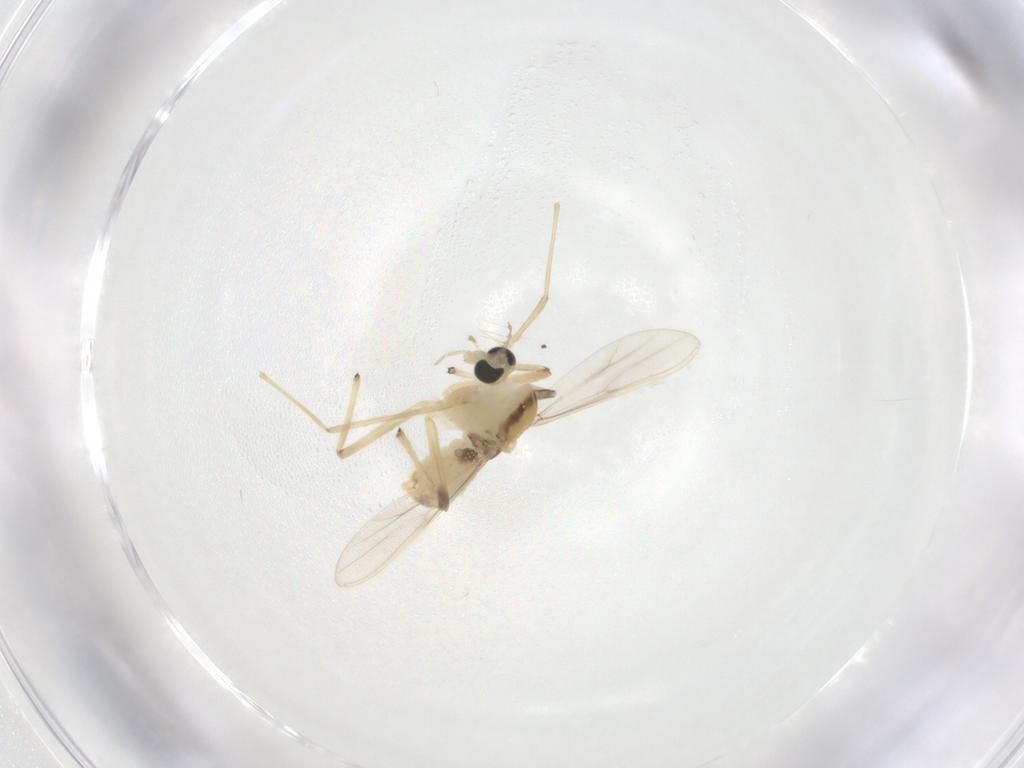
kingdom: Animalia
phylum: Arthropoda
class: Insecta
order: Diptera
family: Chironomidae
